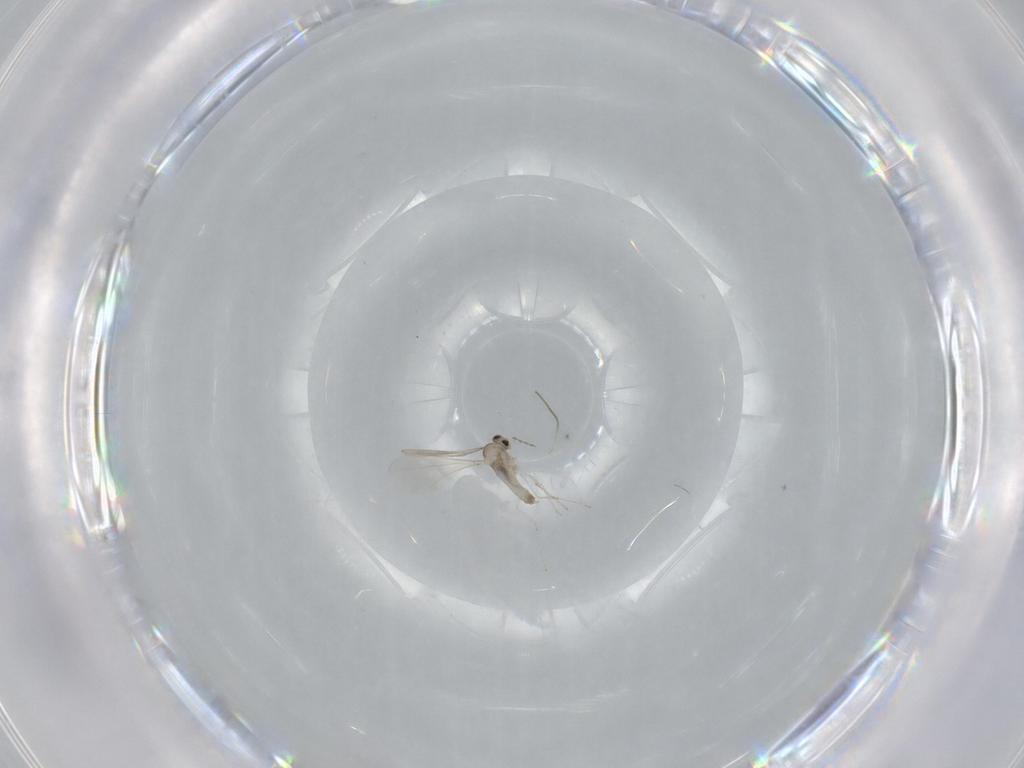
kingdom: Animalia
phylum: Arthropoda
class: Insecta
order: Diptera
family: Cecidomyiidae
